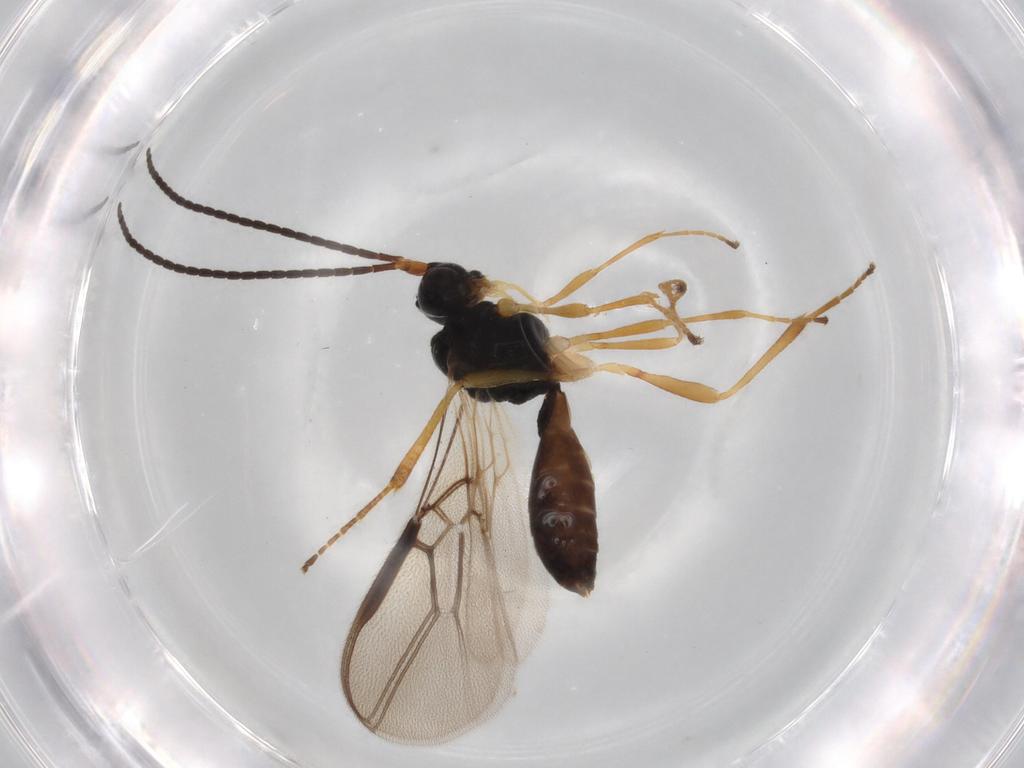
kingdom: Animalia
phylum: Arthropoda
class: Insecta
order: Hymenoptera
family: Braconidae
